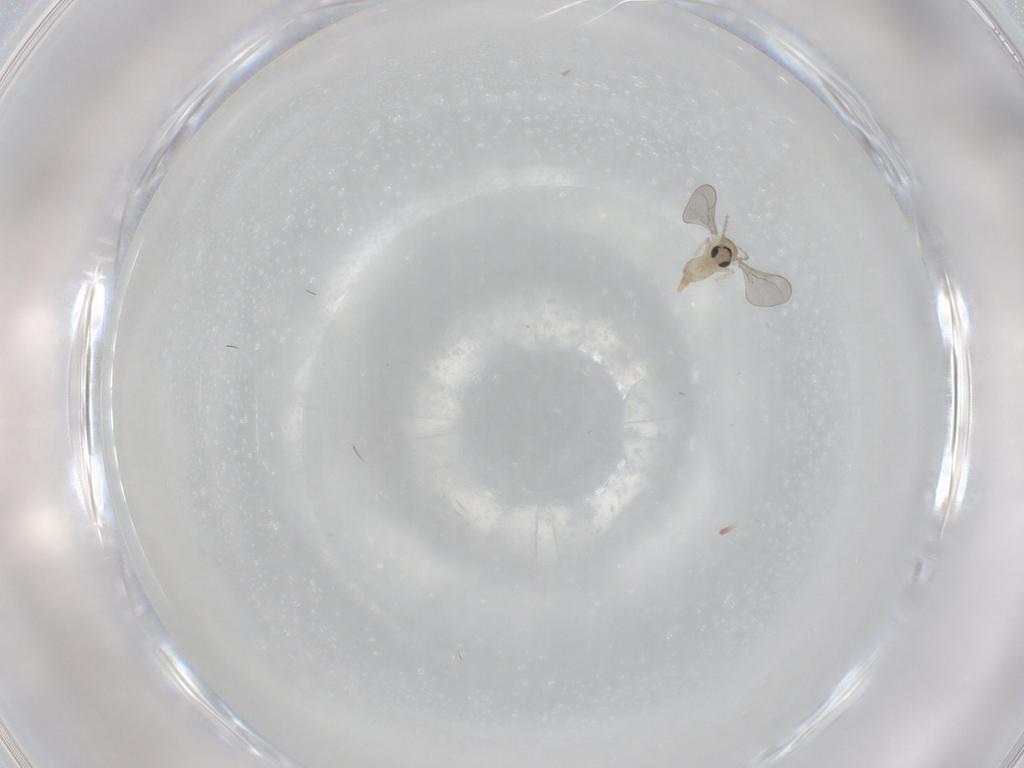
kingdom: Animalia
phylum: Arthropoda
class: Insecta
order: Diptera
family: Cecidomyiidae
